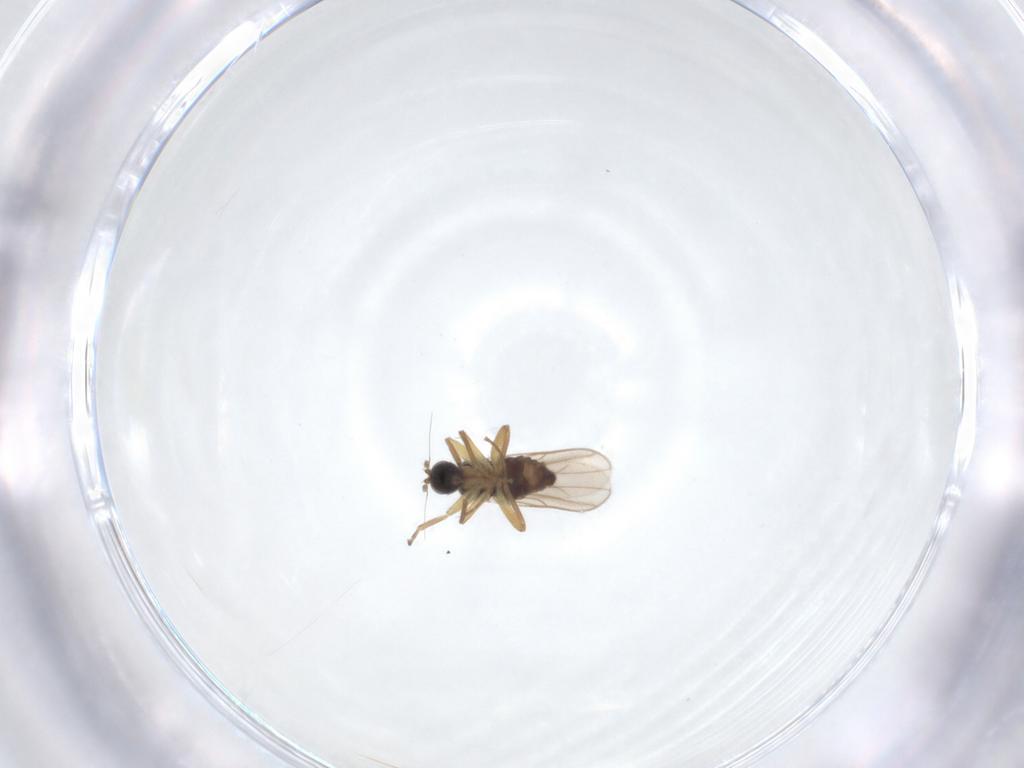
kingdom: Animalia
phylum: Arthropoda
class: Insecta
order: Diptera
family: Hybotidae
